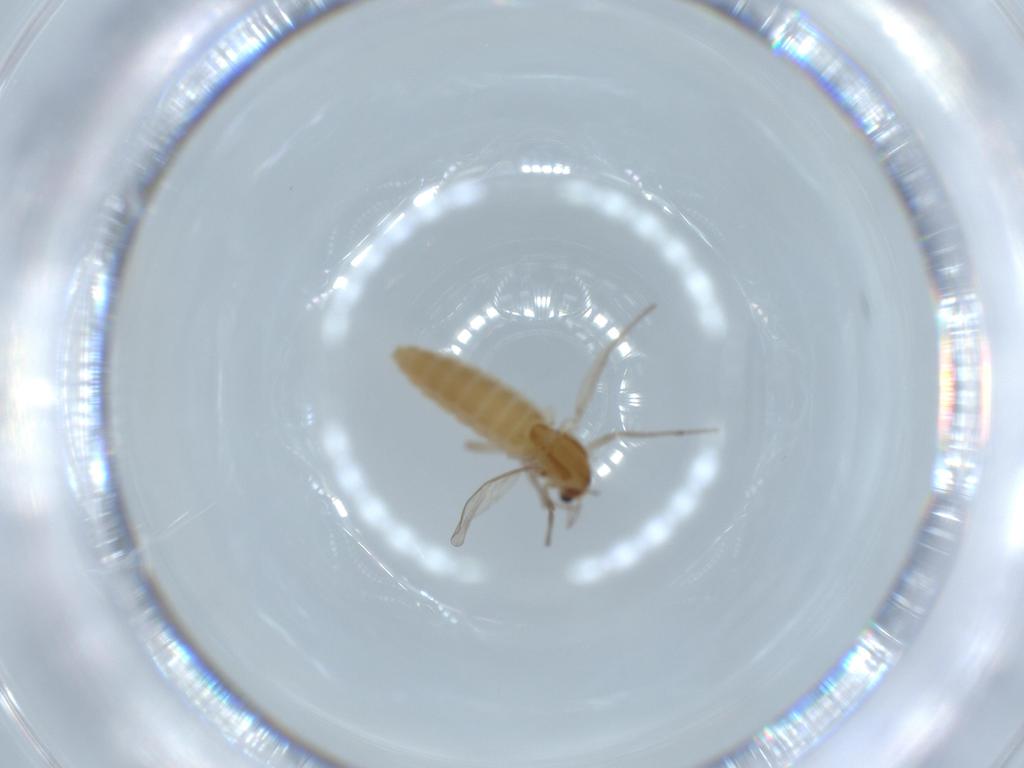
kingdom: Animalia
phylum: Arthropoda
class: Insecta
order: Diptera
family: Chironomidae
